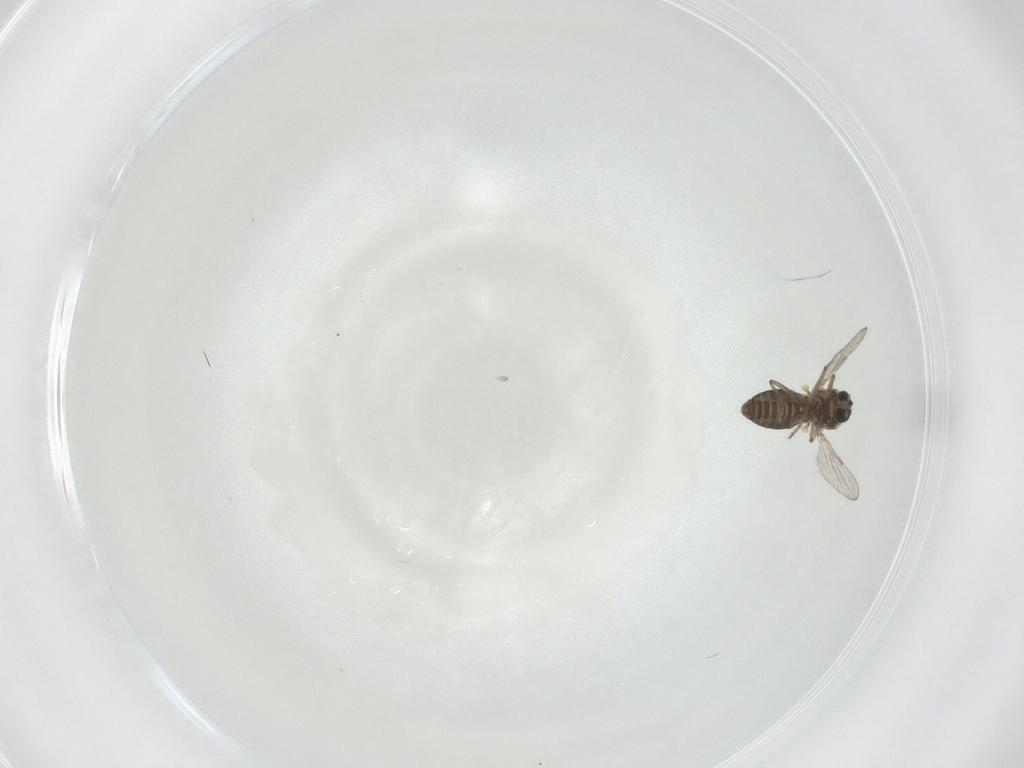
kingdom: Animalia
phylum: Arthropoda
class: Insecta
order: Diptera
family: Ceratopogonidae
